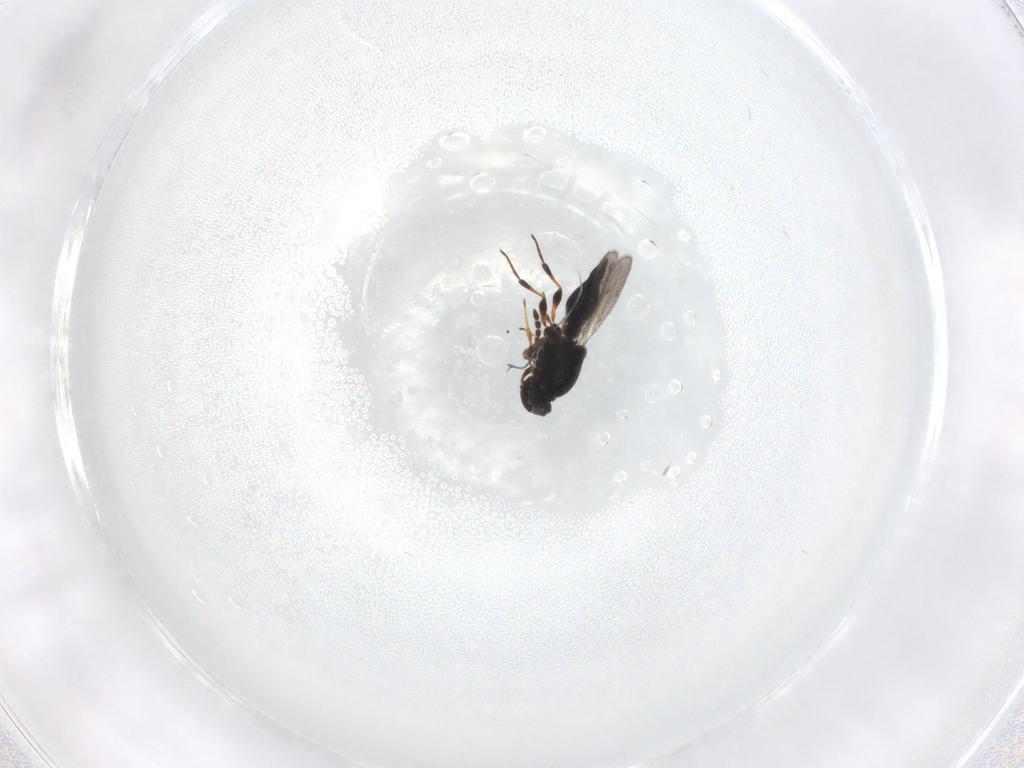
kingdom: Animalia
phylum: Arthropoda
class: Insecta
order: Hymenoptera
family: Platygastridae
